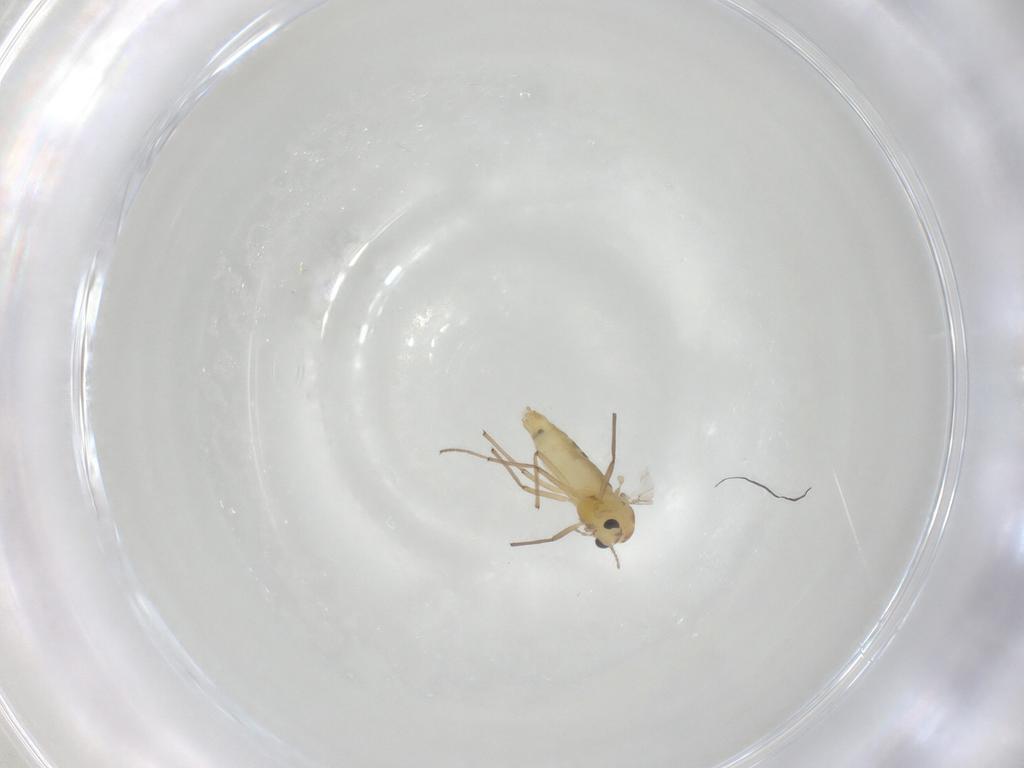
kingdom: Animalia
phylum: Arthropoda
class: Insecta
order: Diptera
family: Chironomidae
